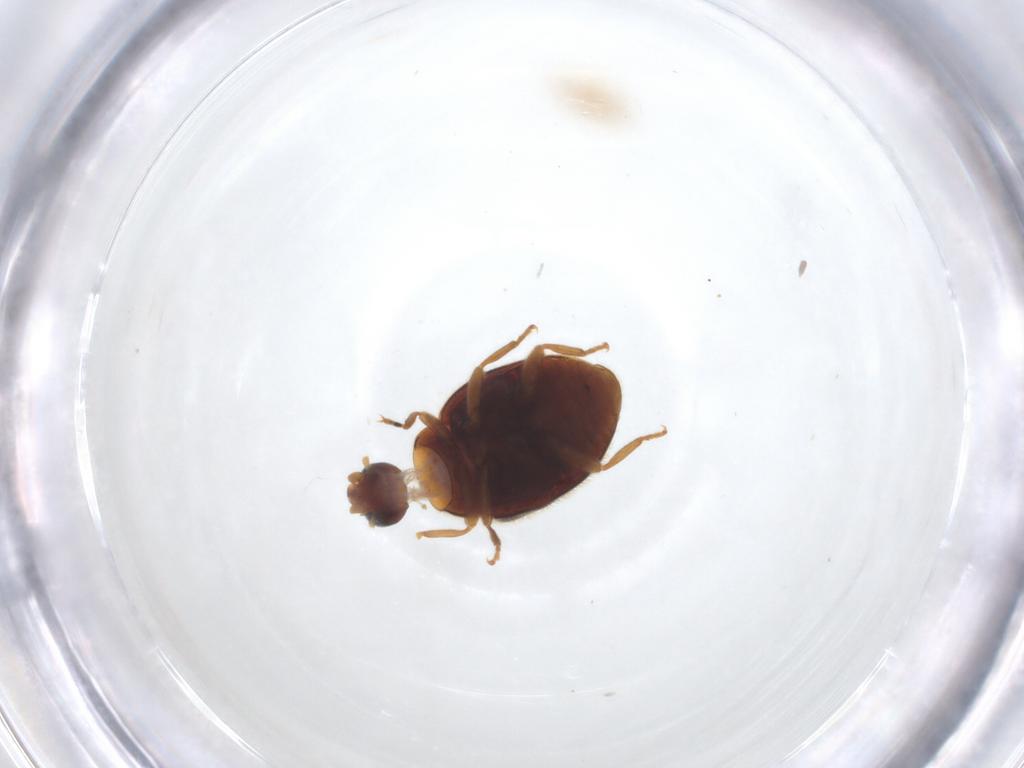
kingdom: Animalia
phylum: Arthropoda
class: Insecta
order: Coleoptera
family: Coccinellidae
